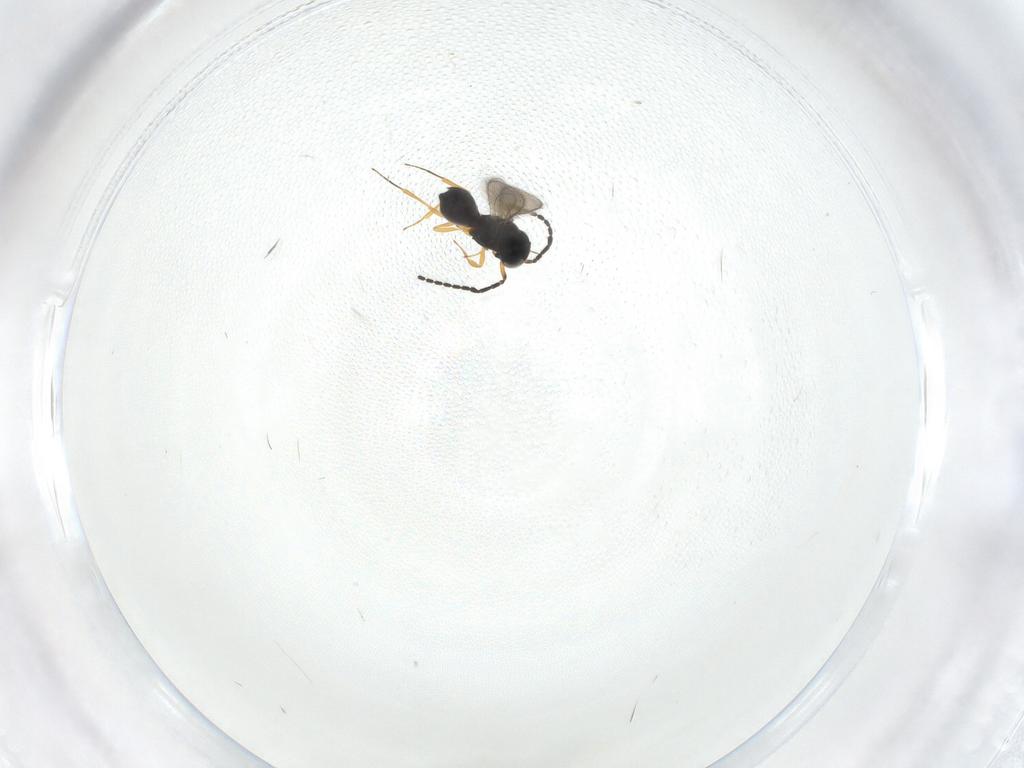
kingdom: Animalia
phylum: Arthropoda
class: Insecta
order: Hymenoptera
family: Scelionidae
